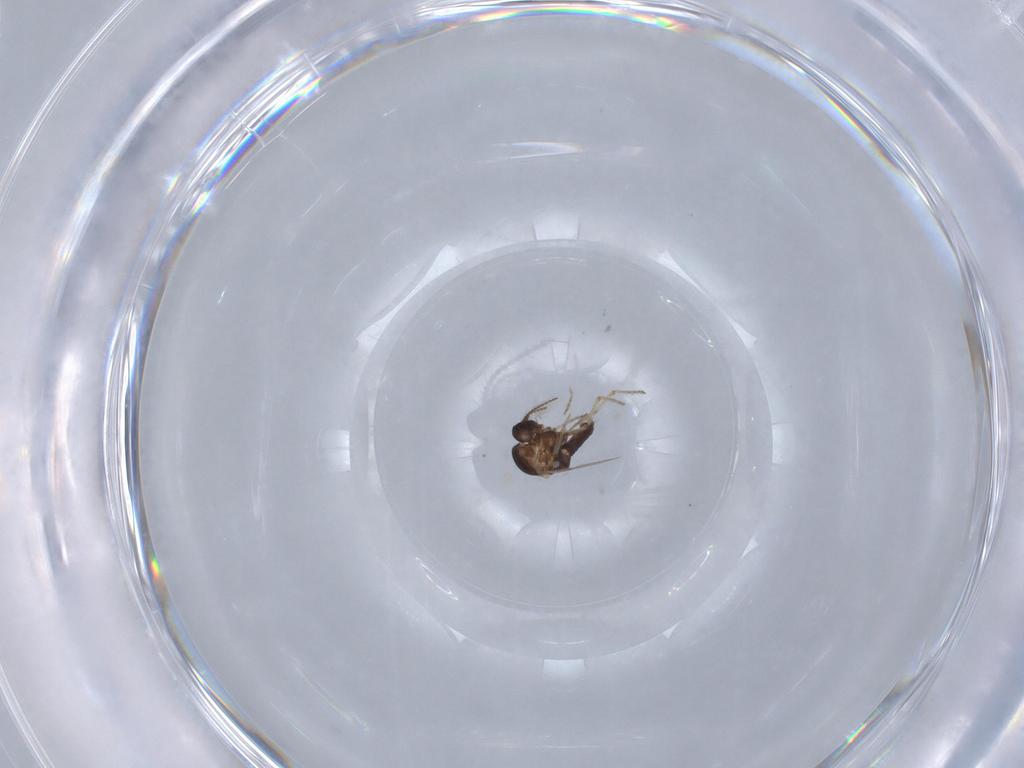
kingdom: Animalia
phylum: Arthropoda
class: Insecta
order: Diptera
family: Ceratopogonidae
